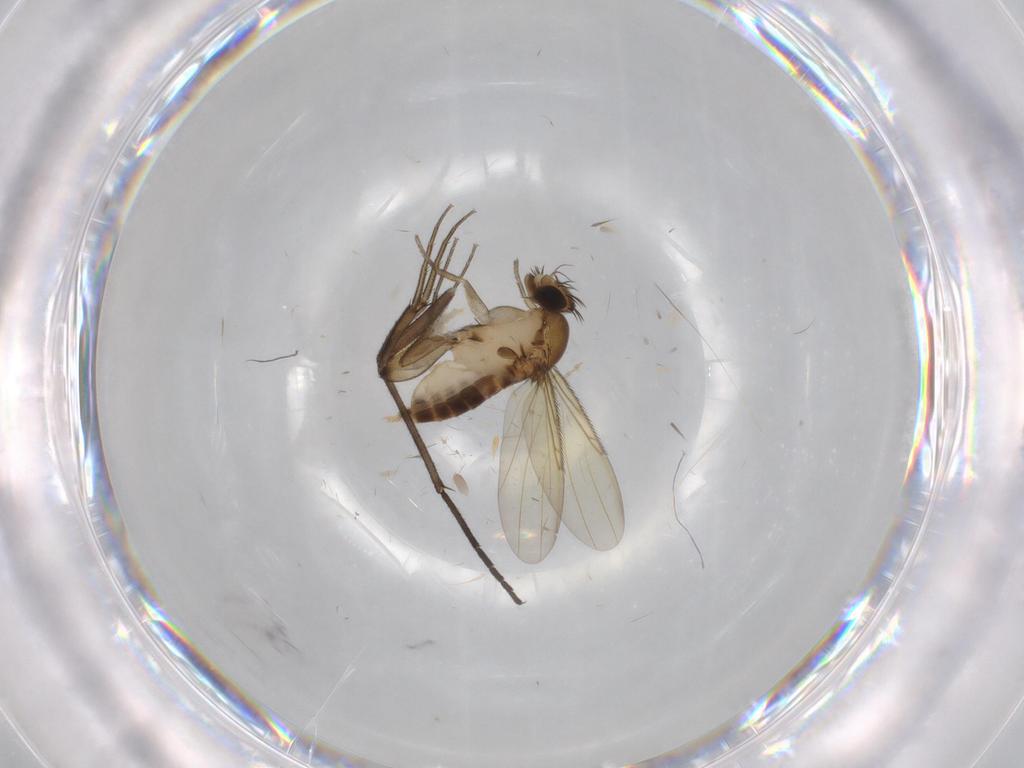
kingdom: Animalia
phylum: Arthropoda
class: Insecta
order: Diptera
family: Phoridae
